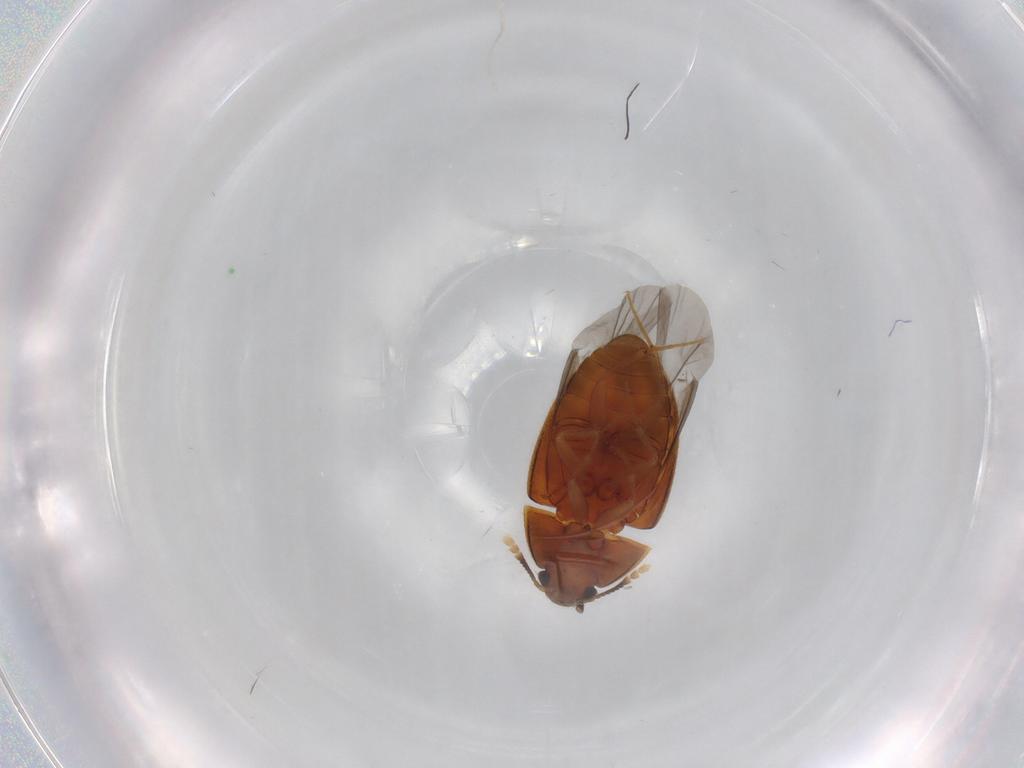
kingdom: Animalia
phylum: Arthropoda
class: Insecta
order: Coleoptera
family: Mycetophagidae
